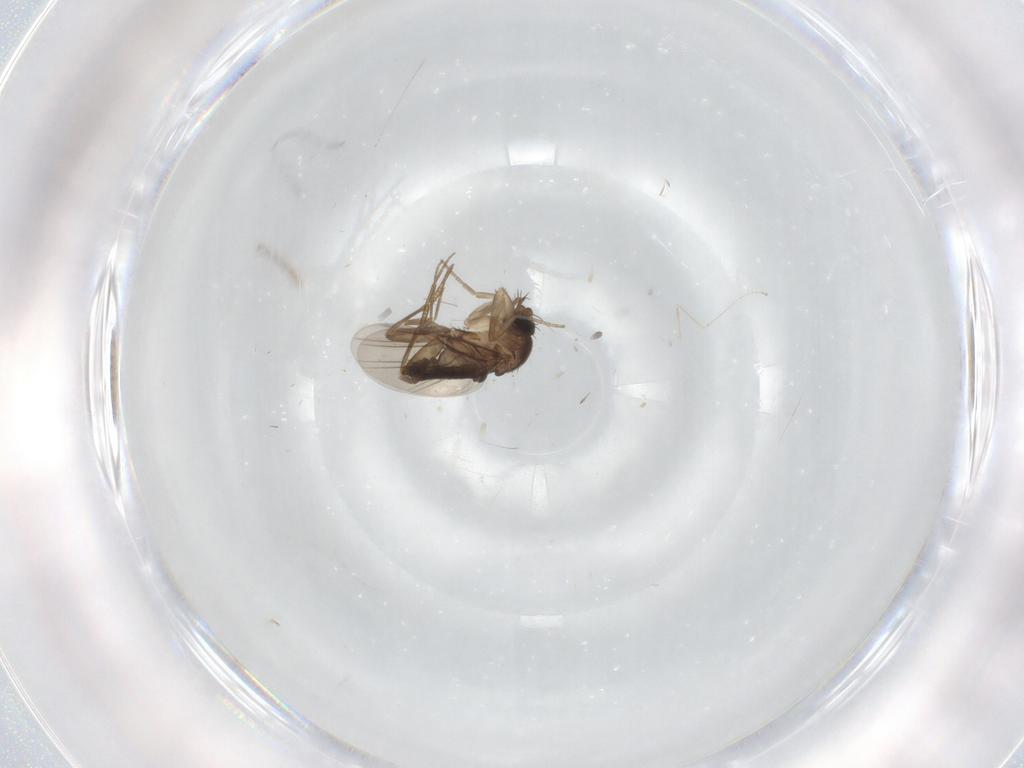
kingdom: Animalia
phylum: Arthropoda
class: Insecta
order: Diptera
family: Phoridae
